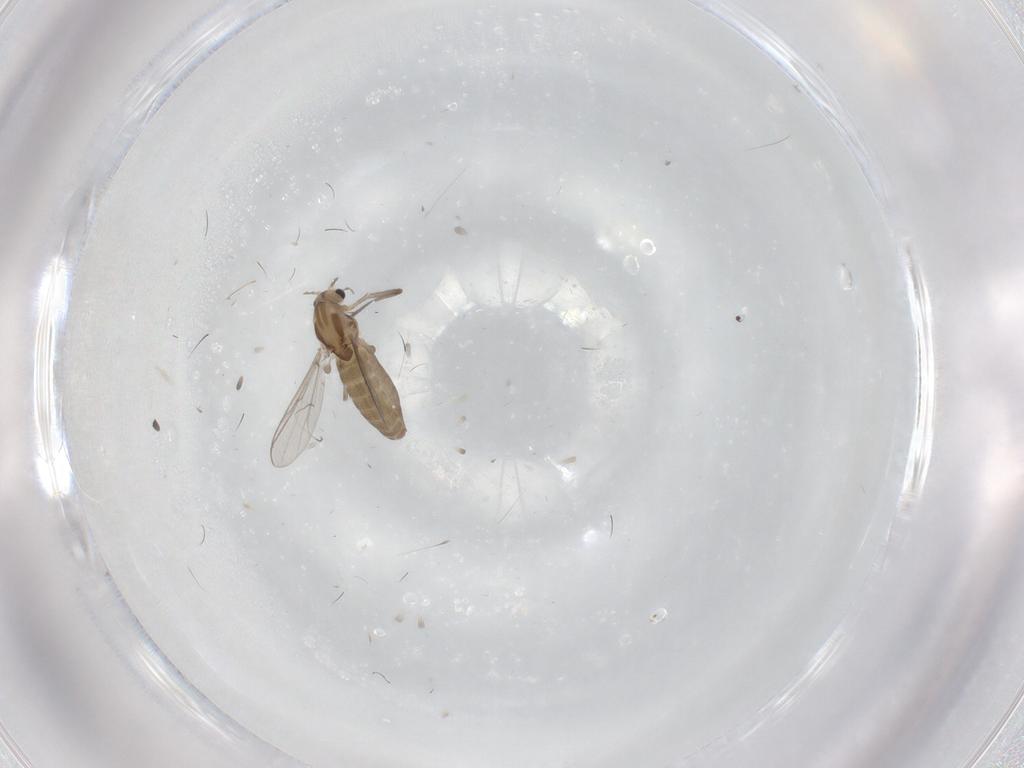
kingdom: Animalia
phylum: Arthropoda
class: Insecta
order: Diptera
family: Chironomidae
